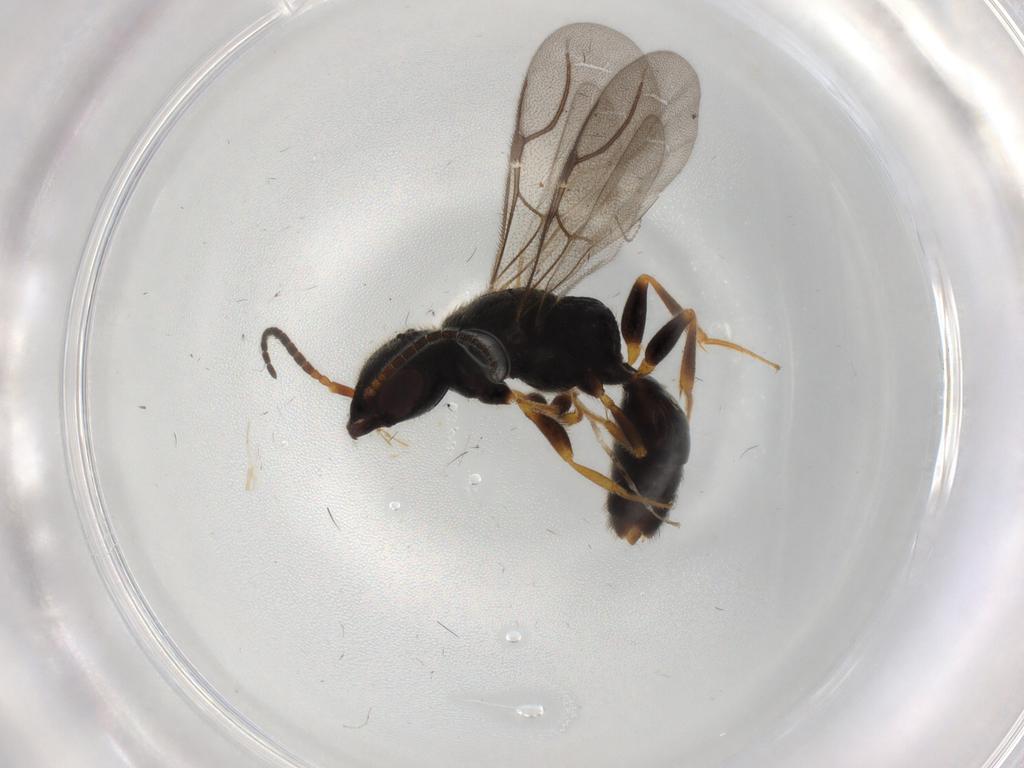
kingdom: Animalia
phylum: Arthropoda
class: Insecta
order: Hymenoptera
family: Bethylidae
